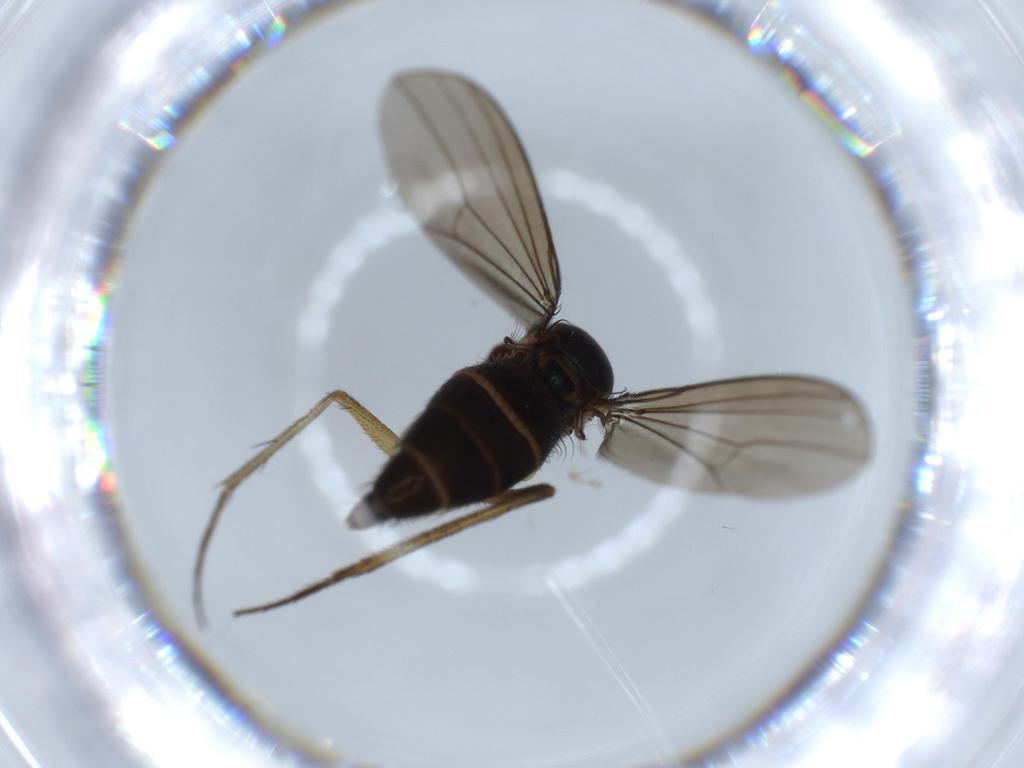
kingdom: Animalia
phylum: Arthropoda
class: Insecta
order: Diptera
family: Dolichopodidae
